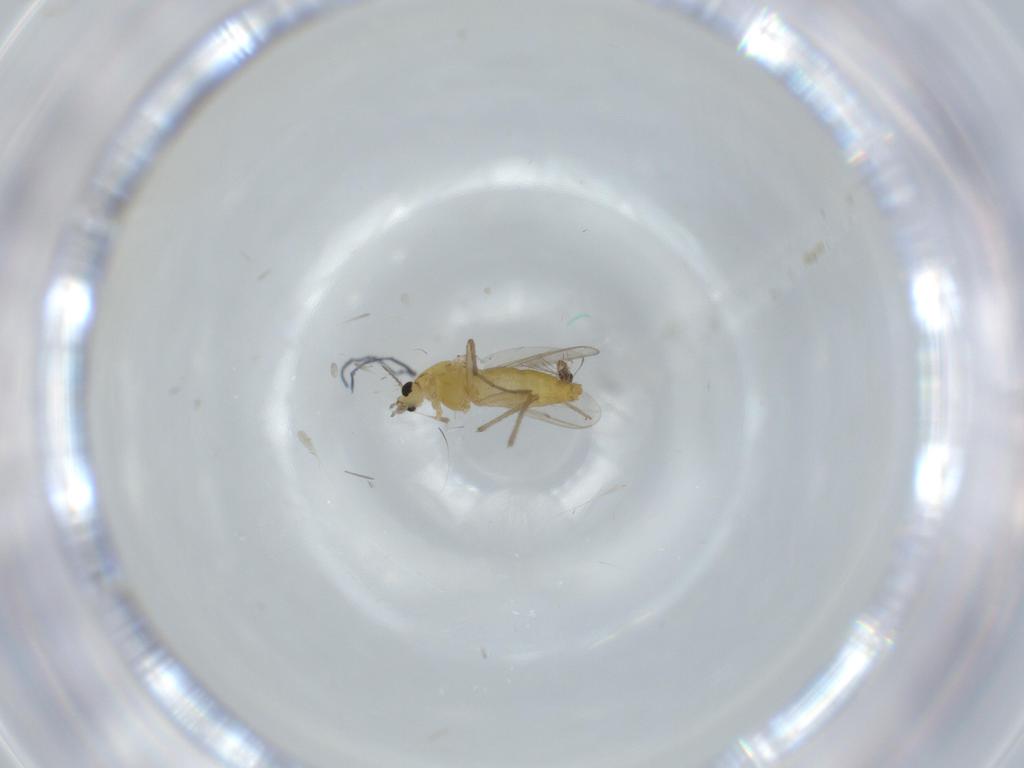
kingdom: Animalia
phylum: Arthropoda
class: Insecta
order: Diptera
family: Chironomidae
